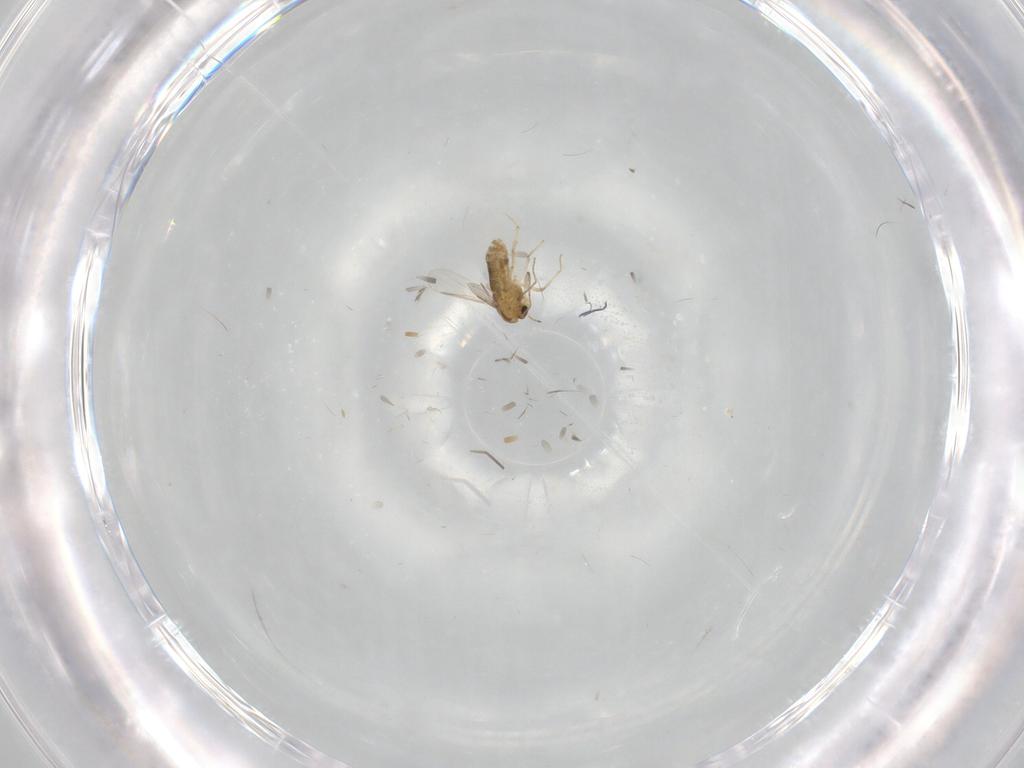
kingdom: Animalia
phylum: Arthropoda
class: Insecta
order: Diptera
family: Chironomidae
